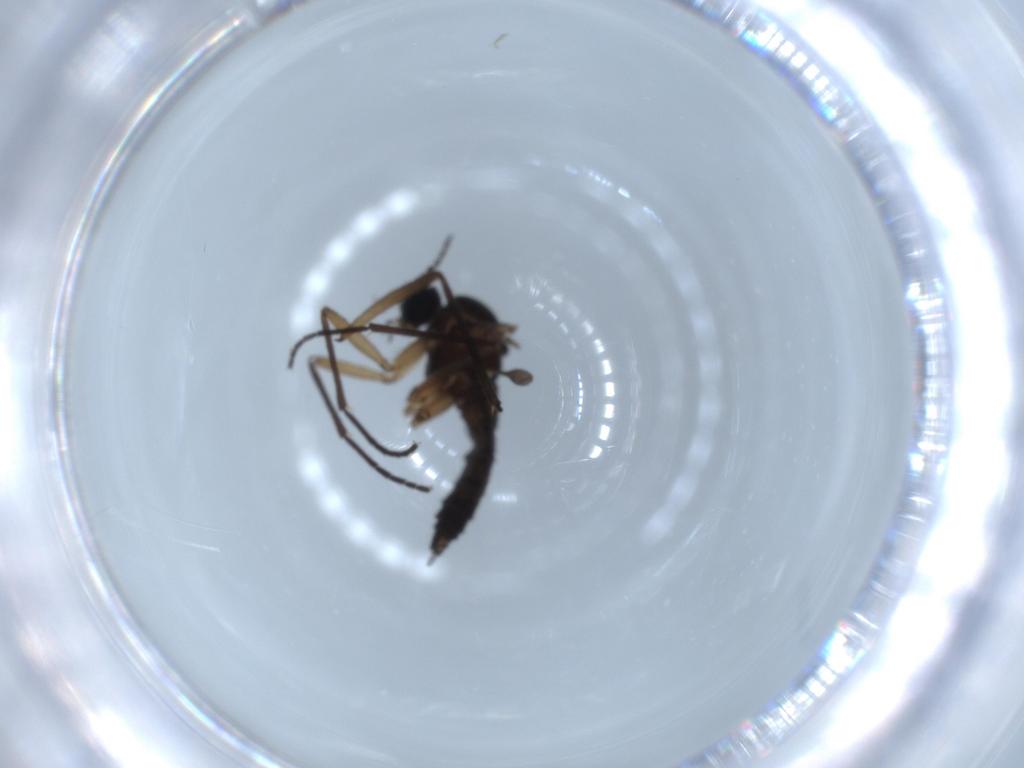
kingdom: Animalia
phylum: Arthropoda
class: Insecta
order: Diptera
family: Sciaridae
